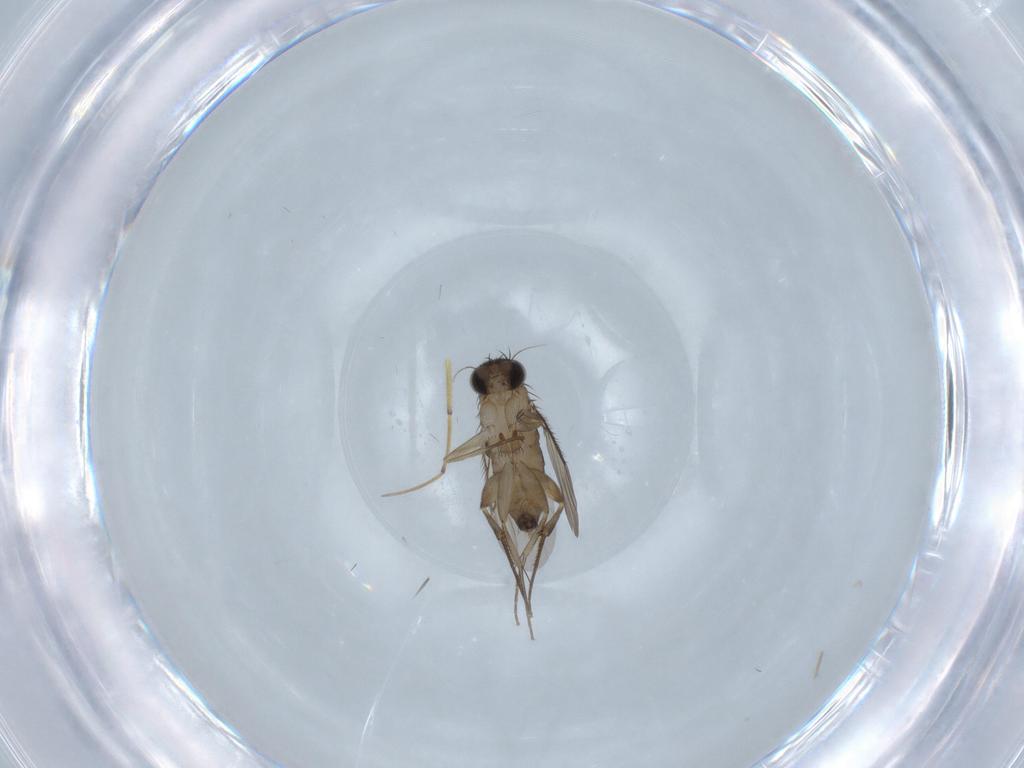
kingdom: Animalia
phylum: Arthropoda
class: Insecta
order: Diptera
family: Phoridae
